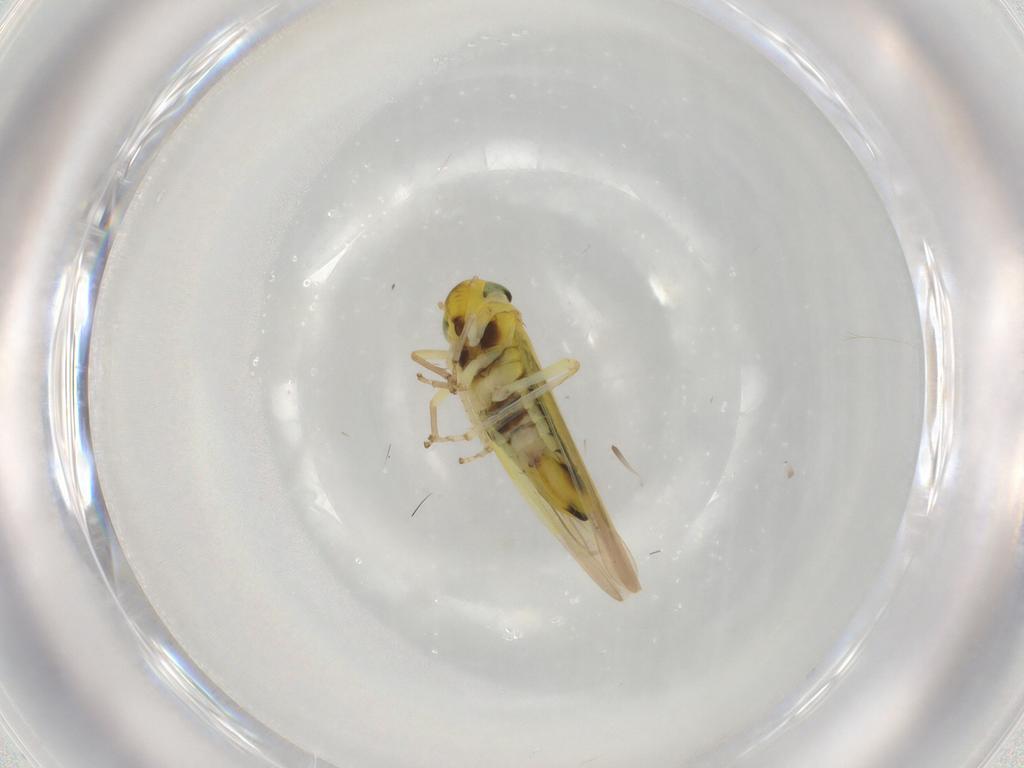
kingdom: Animalia
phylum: Arthropoda
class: Insecta
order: Hemiptera
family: Cicadellidae
